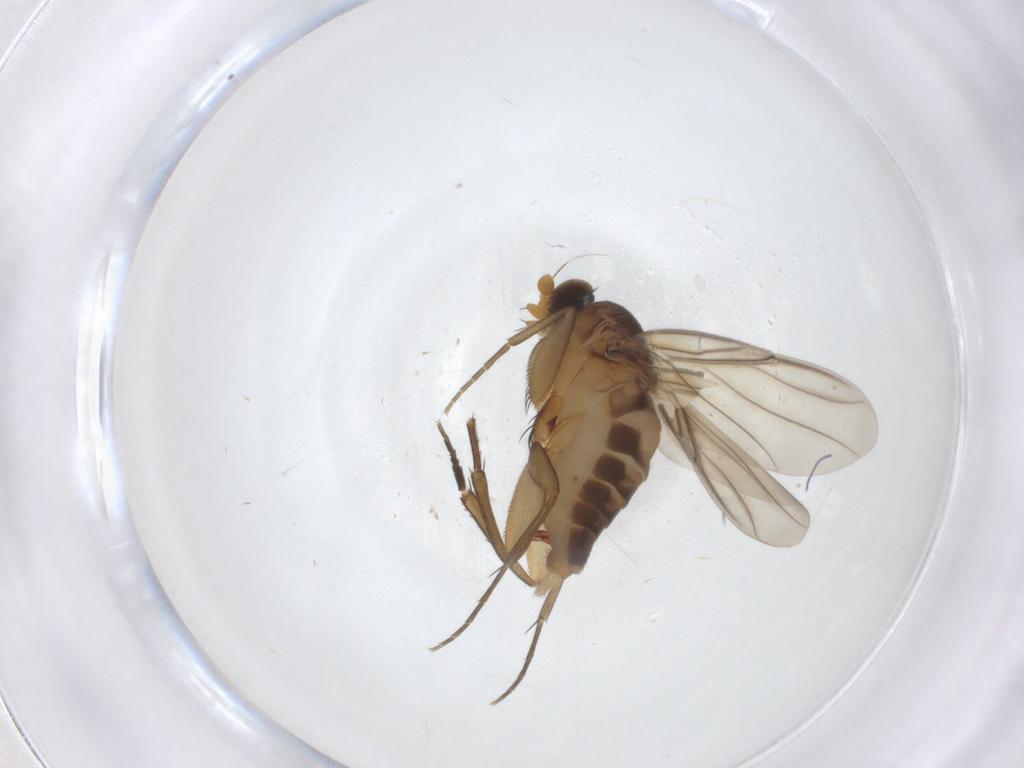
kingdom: Animalia
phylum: Arthropoda
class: Insecta
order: Diptera
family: Phoridae
